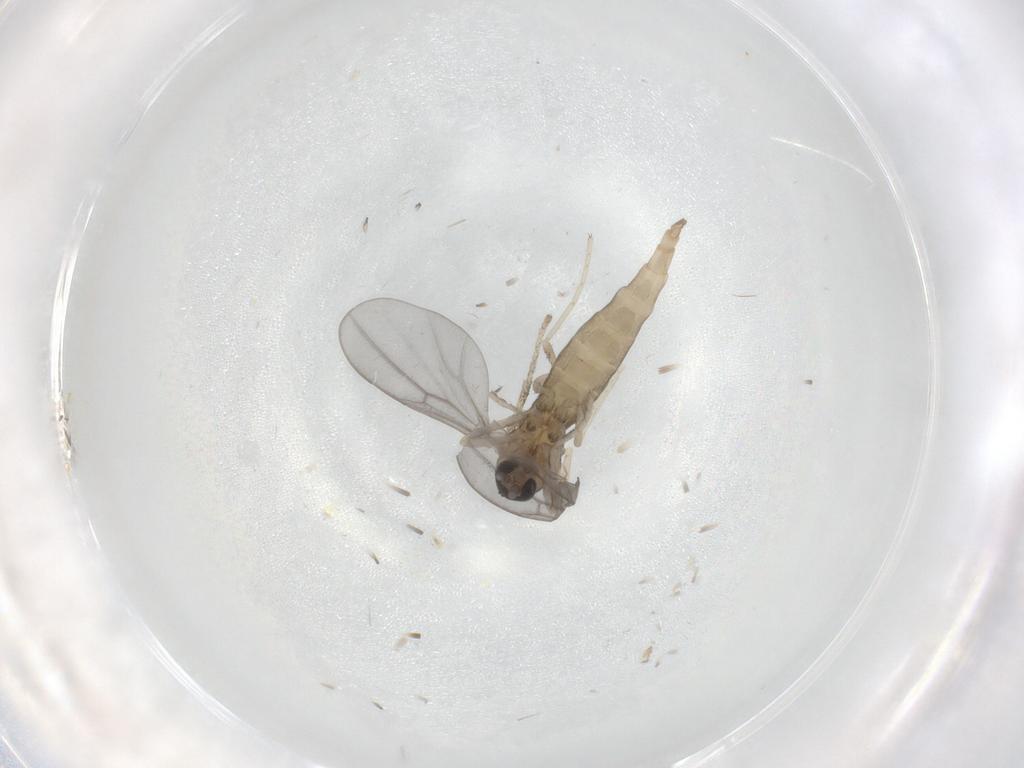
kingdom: Animalia
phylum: Arthropoda
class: Insecta
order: Diptera
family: Cecidomyiidae
